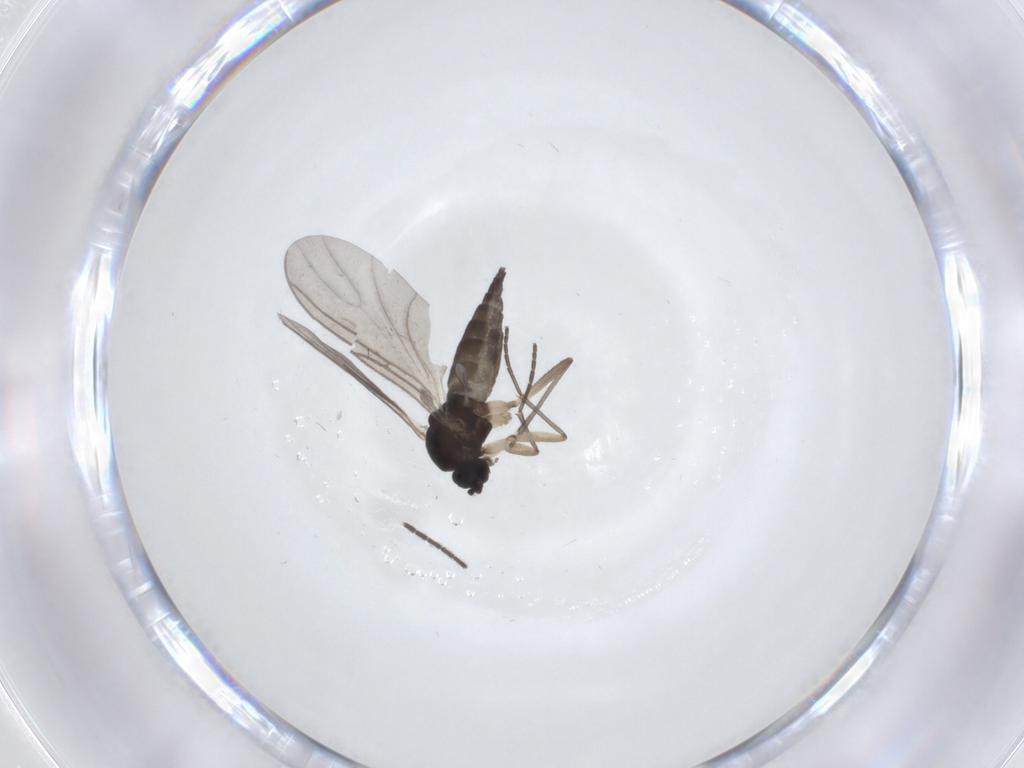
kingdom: Animalia
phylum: Arthropoda
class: Insecta
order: Diptera
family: Sciaridae
